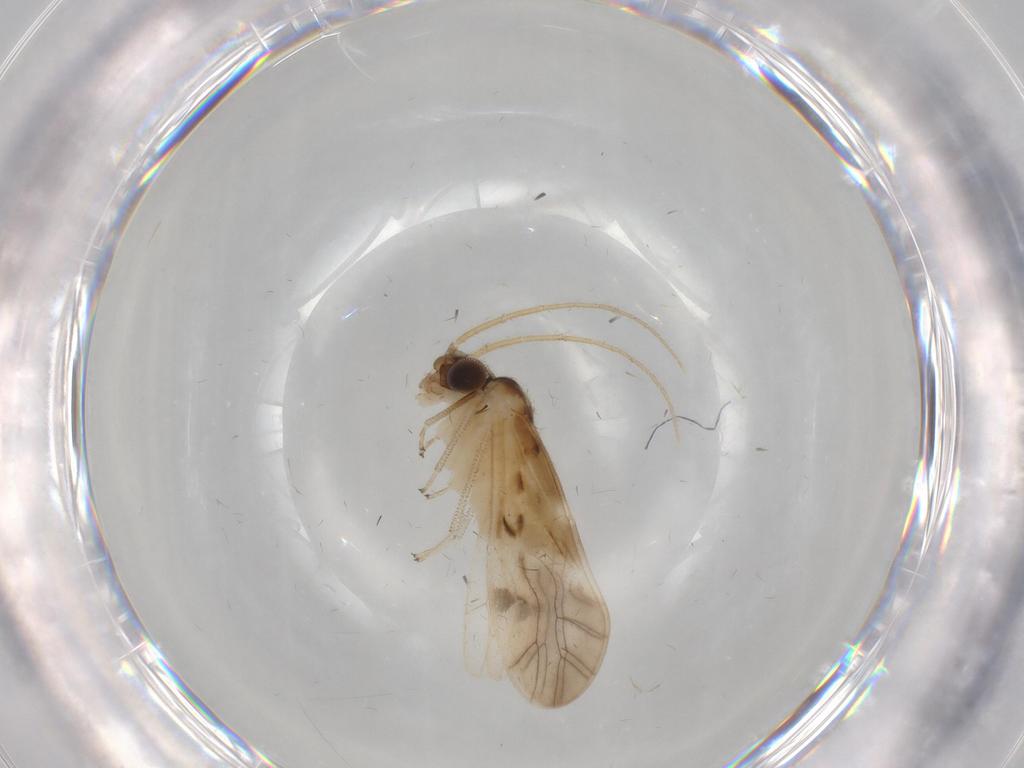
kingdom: Animalia
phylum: Arthropoda
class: Insecta
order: Psocodea
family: Caeciliusidae
